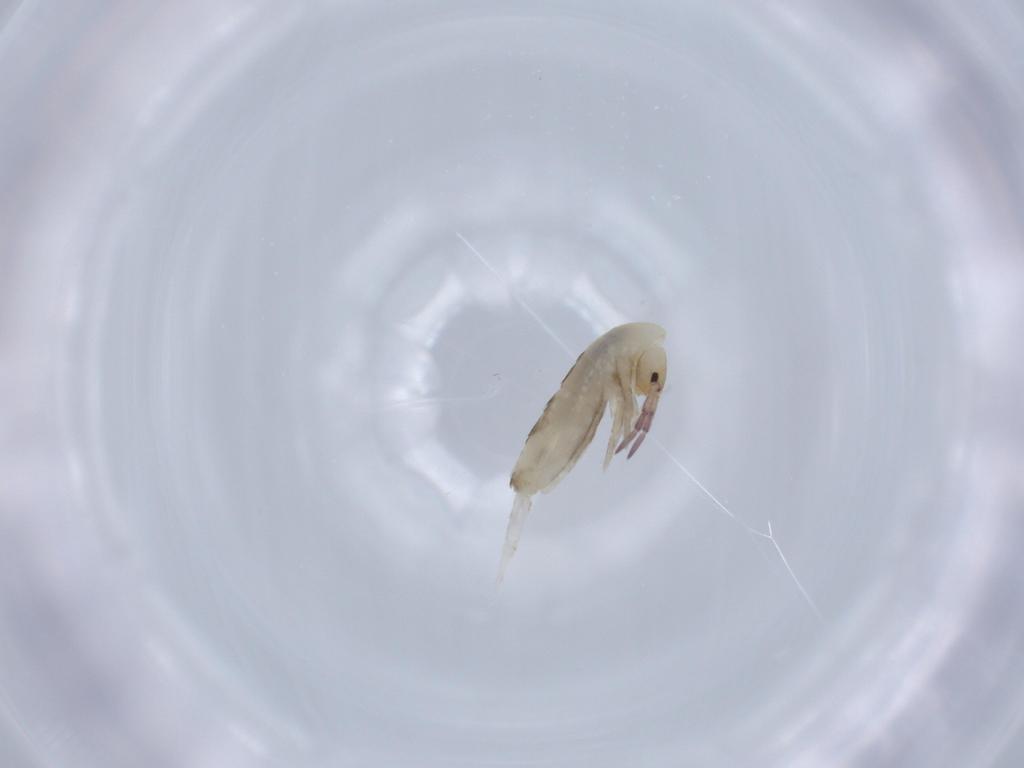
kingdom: Animalia
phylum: Arthropoda
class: Collembola
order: Entomobryomorpha
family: Entomobryidae
